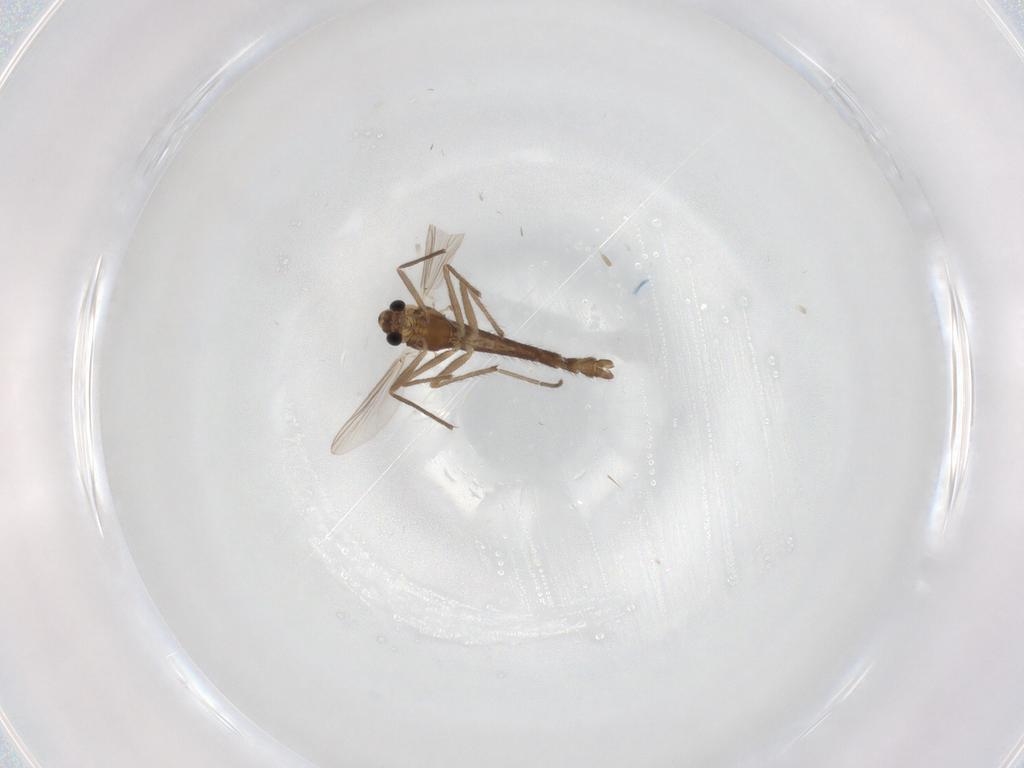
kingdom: Animalia
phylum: Arthropoda
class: Insecta
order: Diptera
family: Chironomidae
